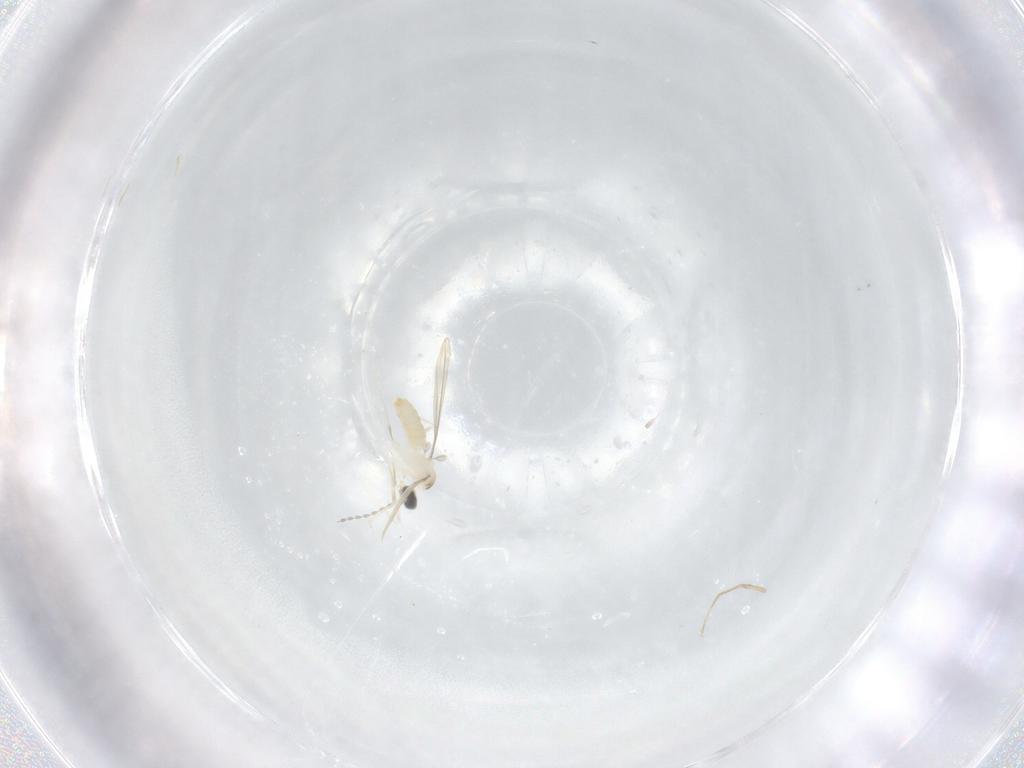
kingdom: Animalia
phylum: Arthropoda
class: Insecta
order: Diptera
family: Cecidomyiidae
